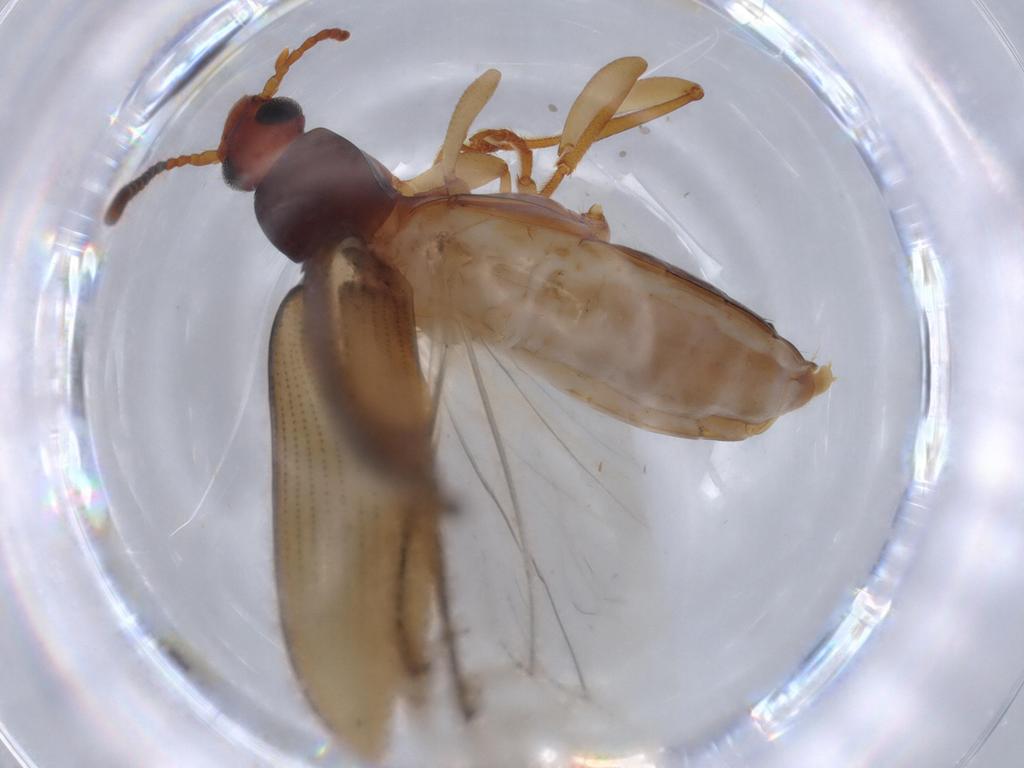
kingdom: Animalia
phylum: Arthropoda
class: Insecta
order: Coleoptera
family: Tenebrionidae
